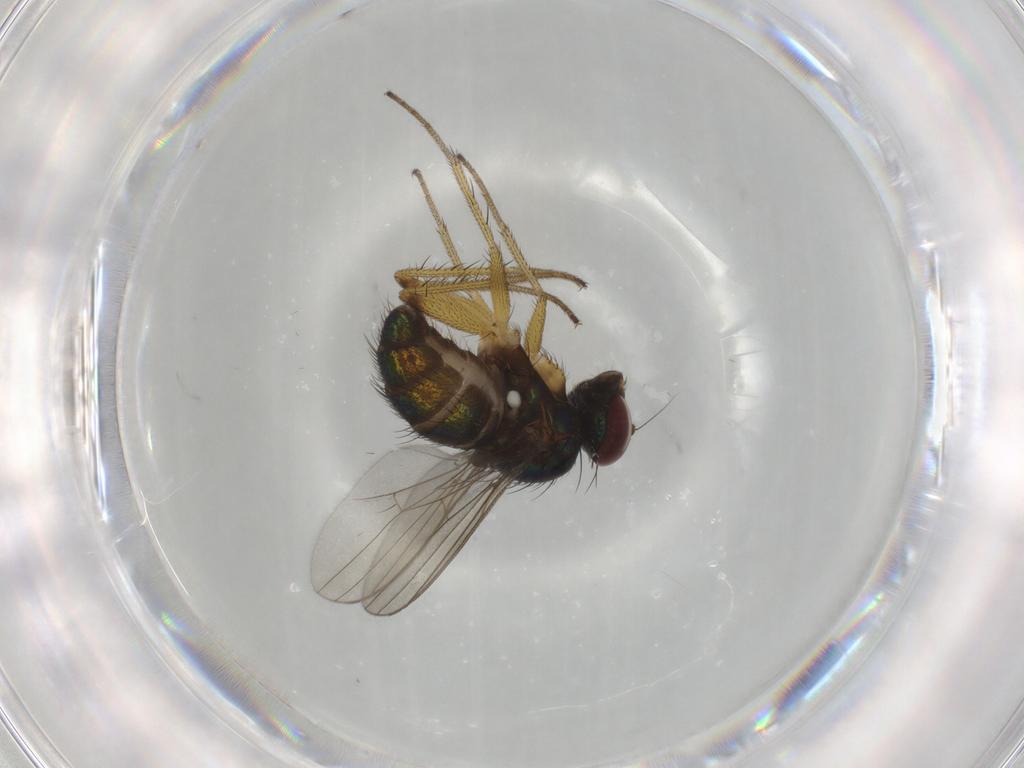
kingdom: Animalia
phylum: Arthropoda
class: Insecta
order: Diptera
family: Dolichopodidae
